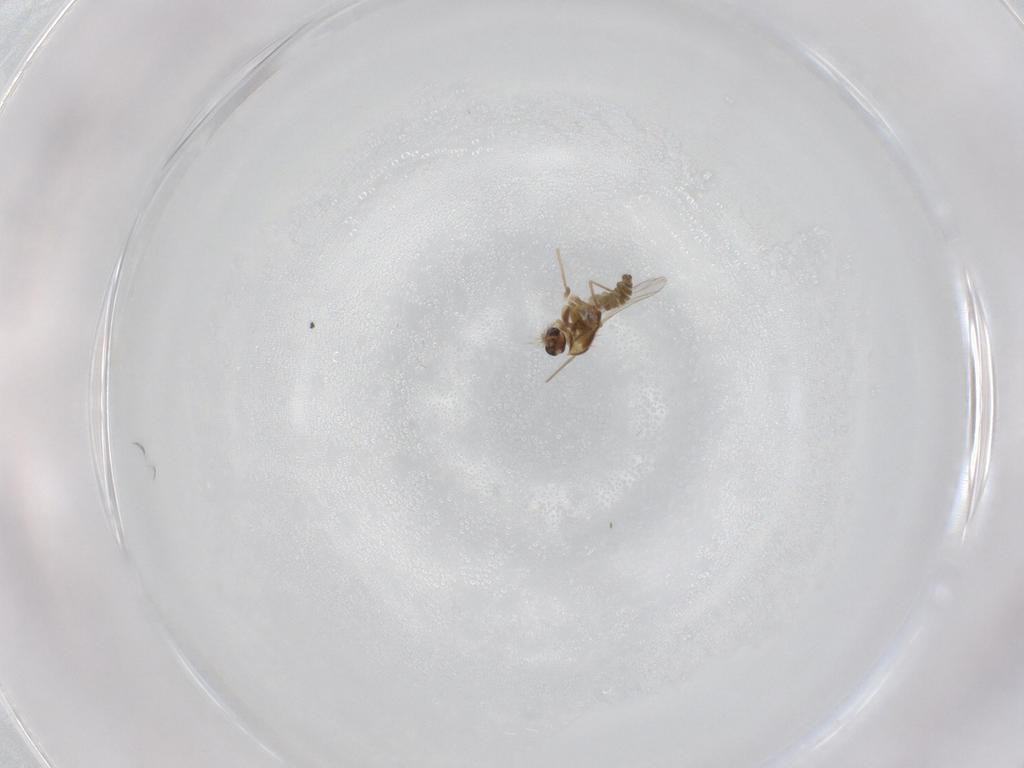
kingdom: Animalia
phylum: Arthropoda
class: Insecta
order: Diptera
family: Chironomidae
